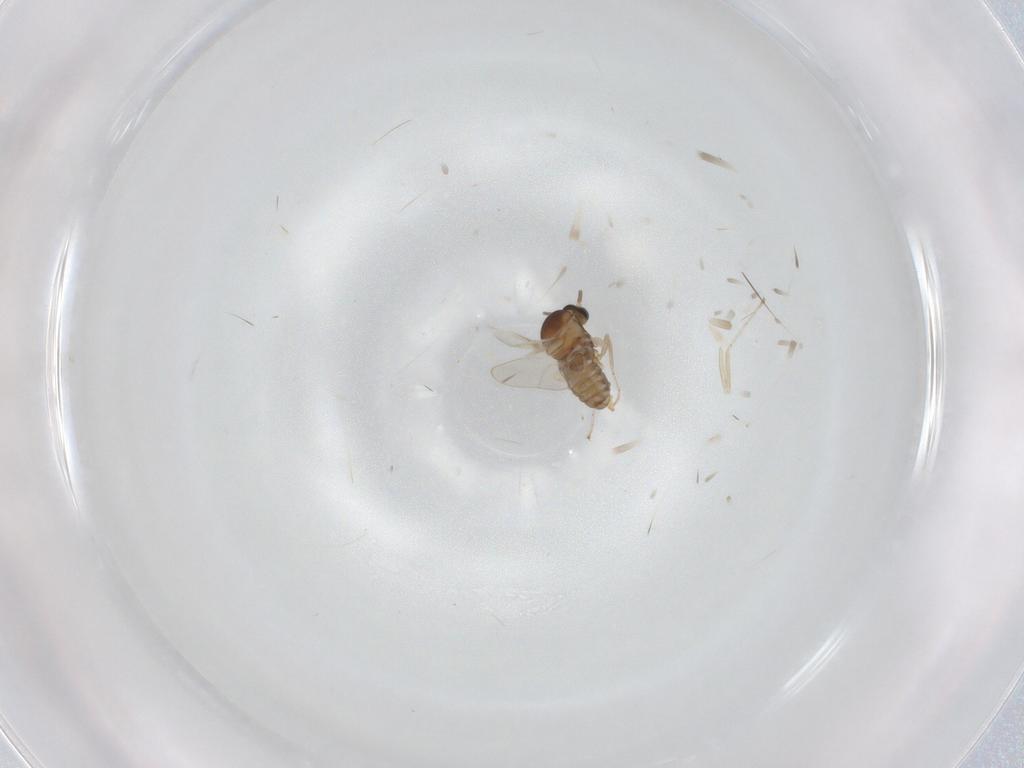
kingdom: Animalia
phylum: Arthropoda
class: Insecta
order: Diptera
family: Cecidomyiidae
